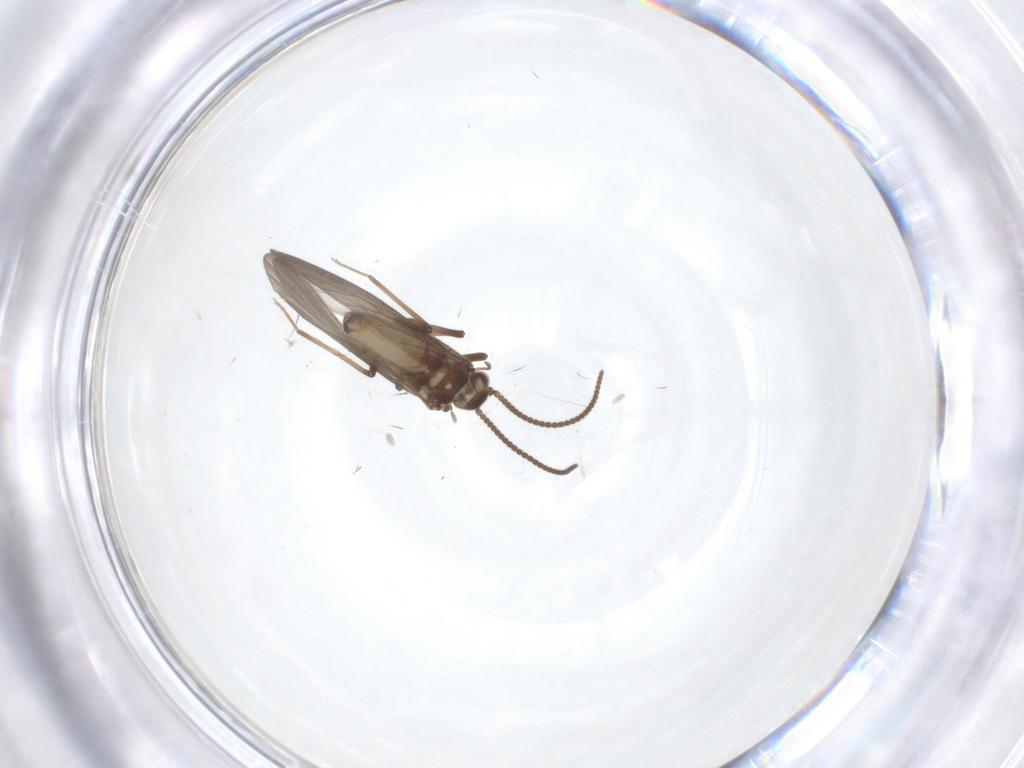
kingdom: Animalia
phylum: Arthropoda
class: Insecta
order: Neuroptera
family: Coniopterygidae
